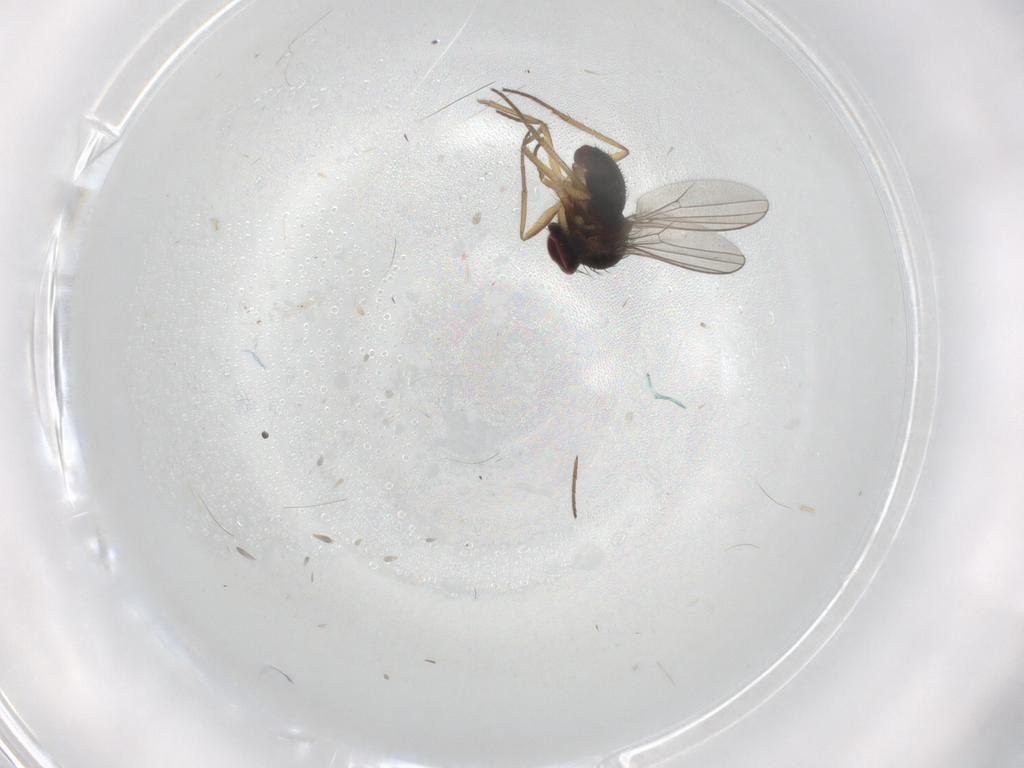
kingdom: Animalia
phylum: Arthropoda
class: Insecta
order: Diptera
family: Dolichopodidae
